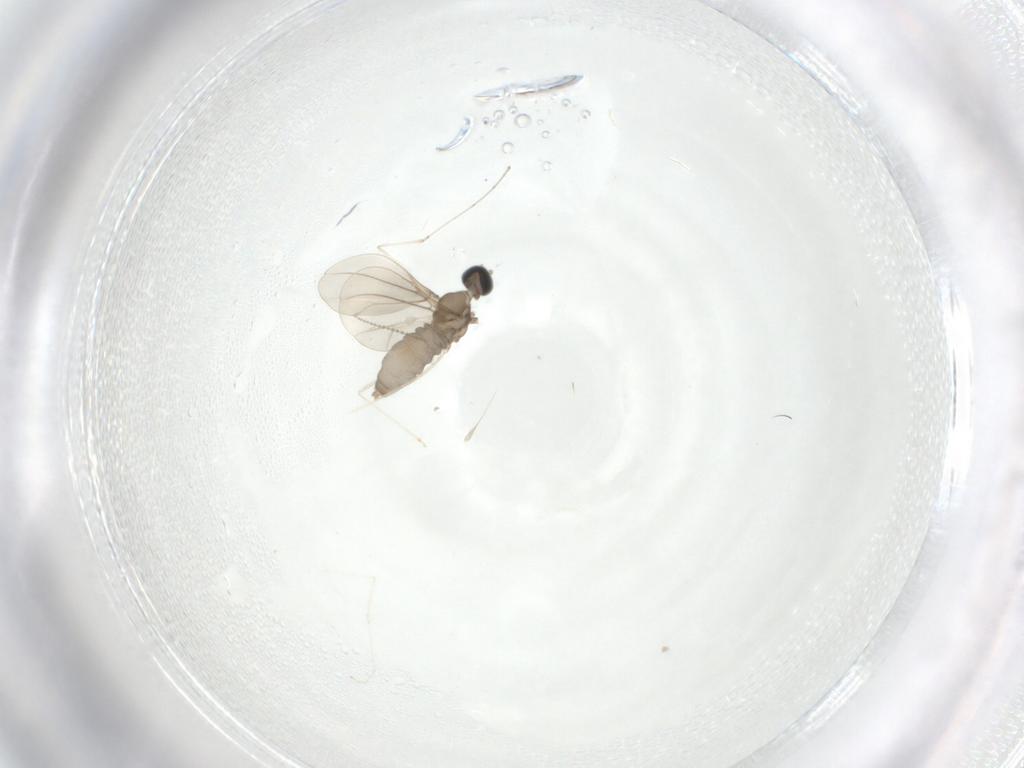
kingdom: Animalia
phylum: Arthropoda
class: Insecta
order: Diptera
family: Cecidomyiidae
